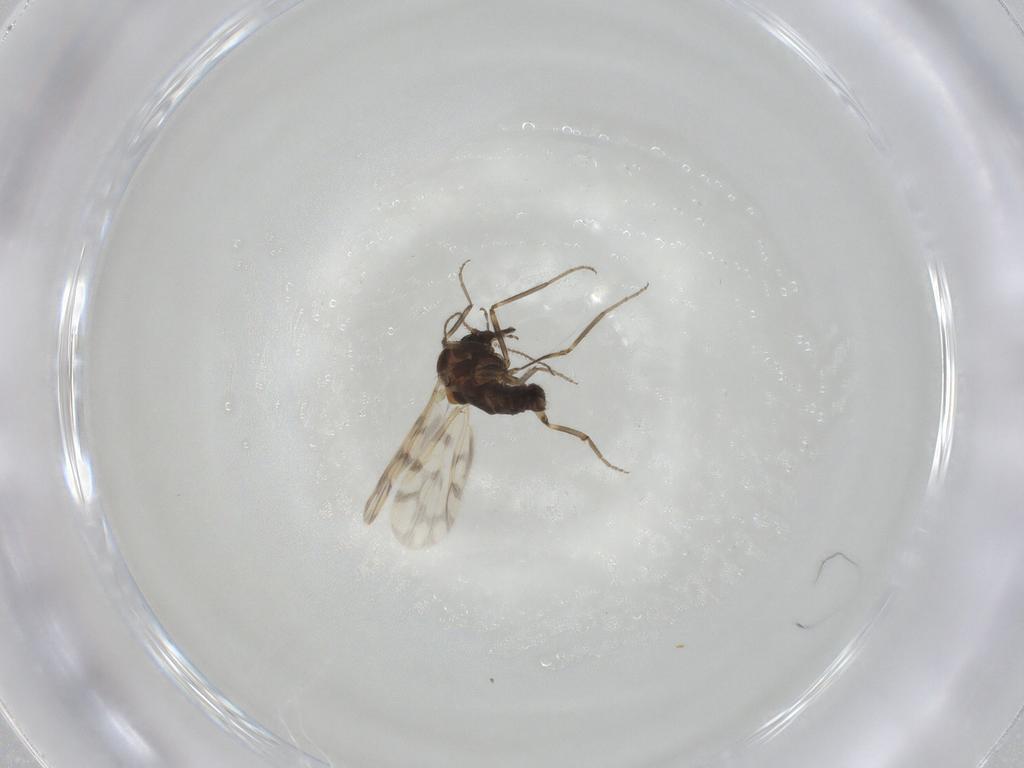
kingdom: Animalia
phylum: Arthropoda
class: Insecta
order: Diptera
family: Ceratopogonidae
